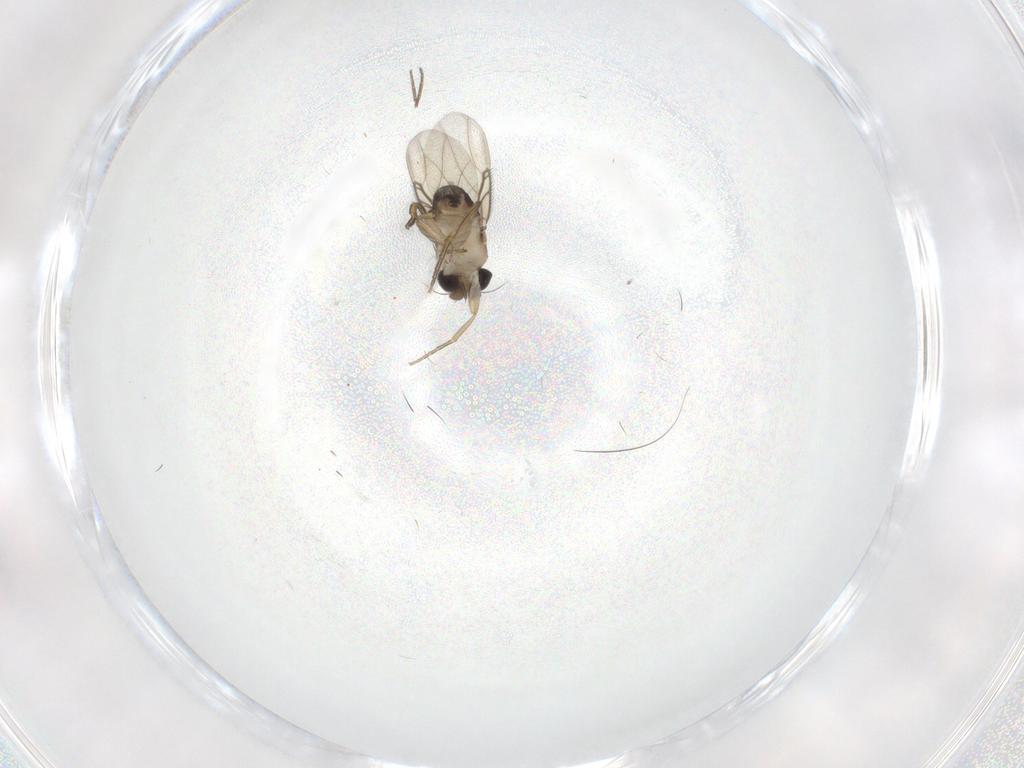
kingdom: Animalia
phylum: Arthropoda
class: Insecta
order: Diptera
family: Phoridae
